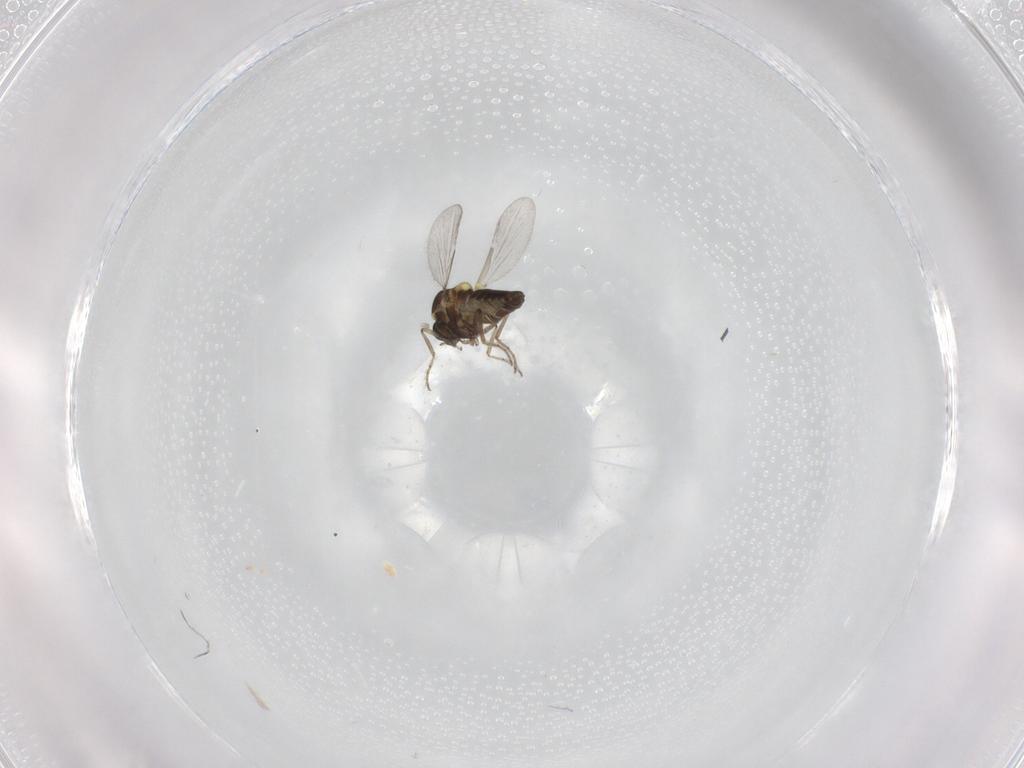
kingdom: Animalia
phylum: Arthropoda
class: Insecta
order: Diptera
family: Ceratopogonidae
